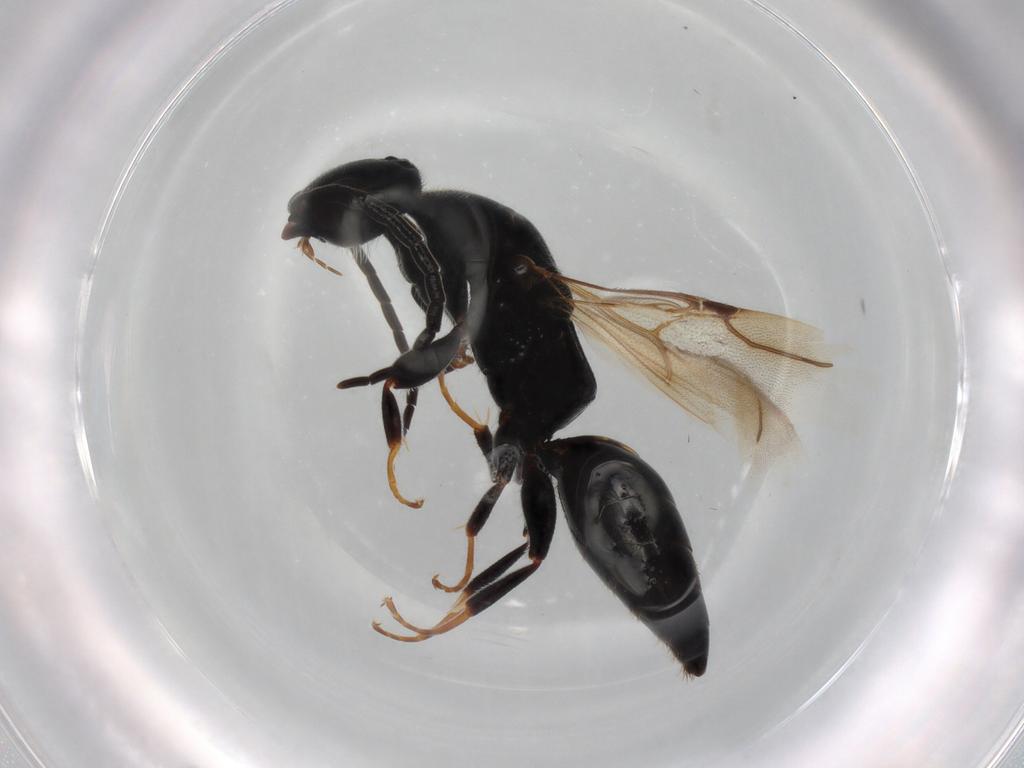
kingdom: Animalia
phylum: Arthropoda
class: Insecta
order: Hymenoptera
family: Bethylidae
